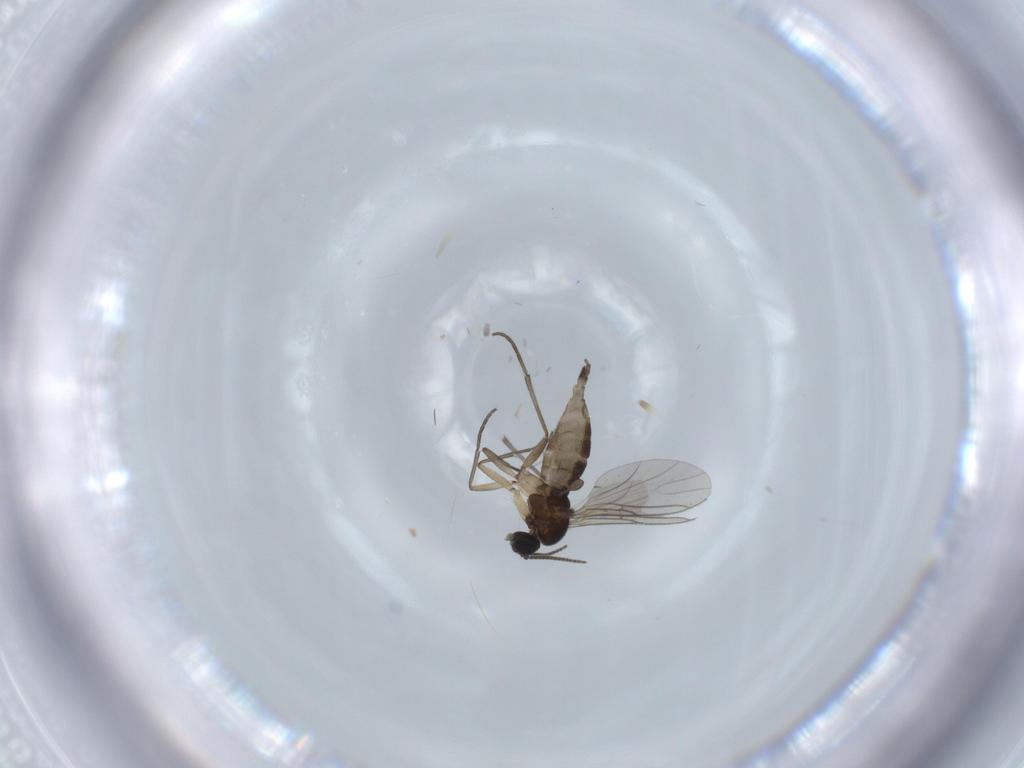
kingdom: Animalia
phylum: Arthropoda
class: Insecta
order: Diptera
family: Sciaridae
